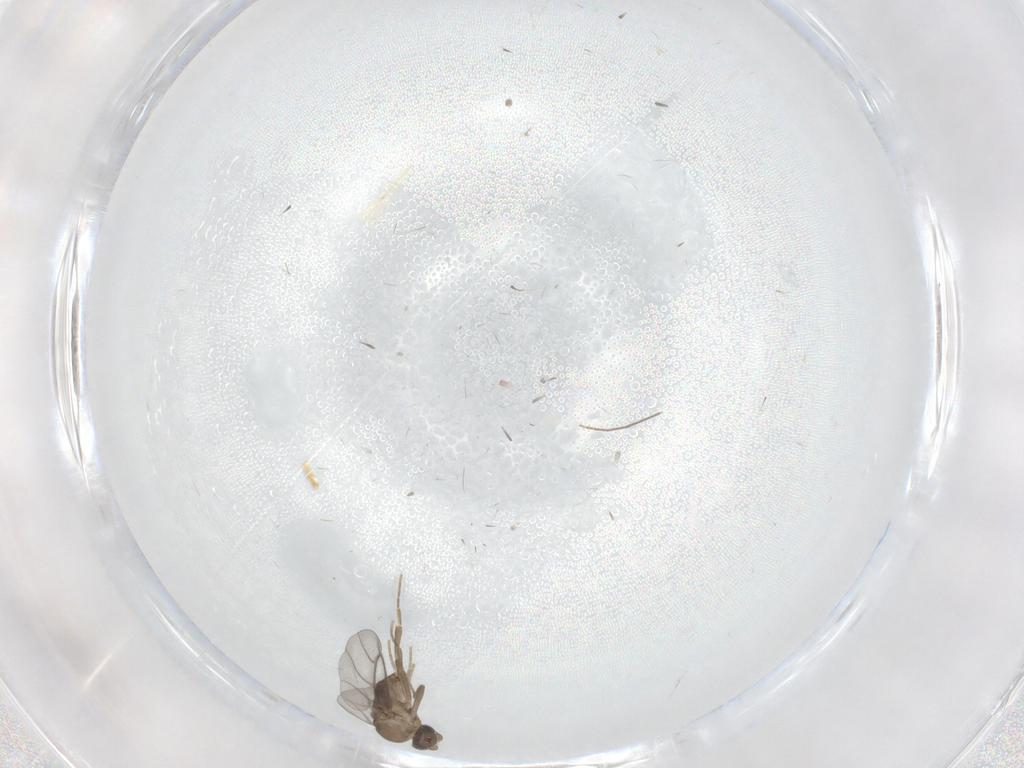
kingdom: Animalia
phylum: Arthropoda
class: Insecta
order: Diptera
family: Chironomidae
